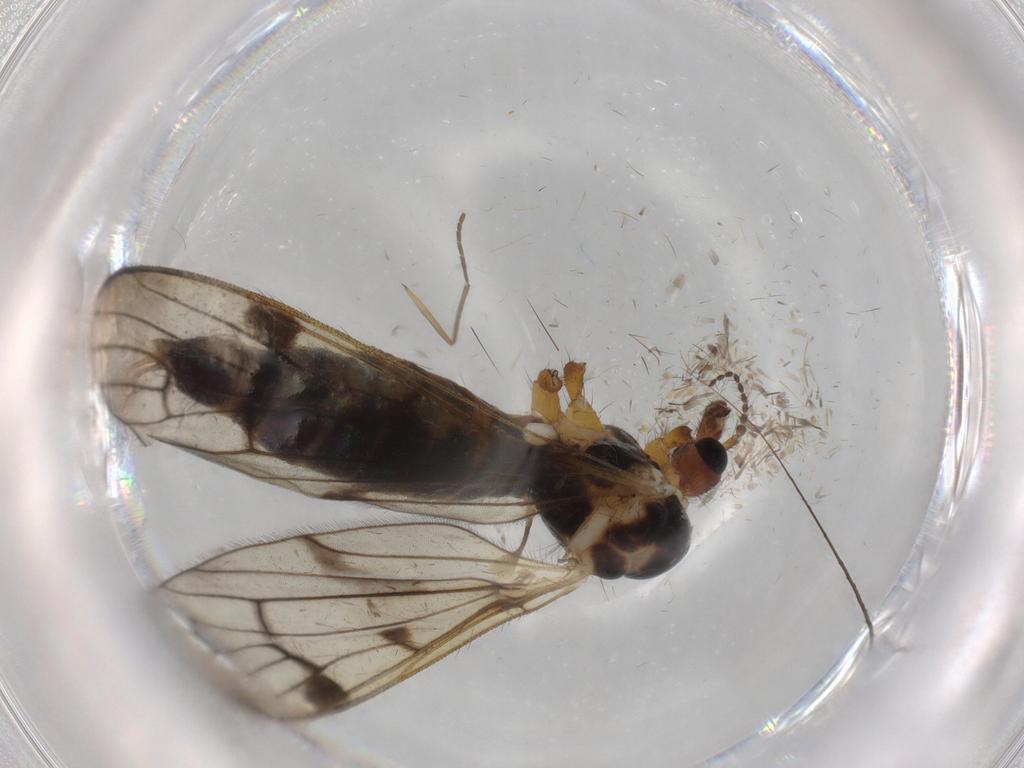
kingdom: Animalia
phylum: Arthropoda
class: Insecta
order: Diptera
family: Limoniidae
